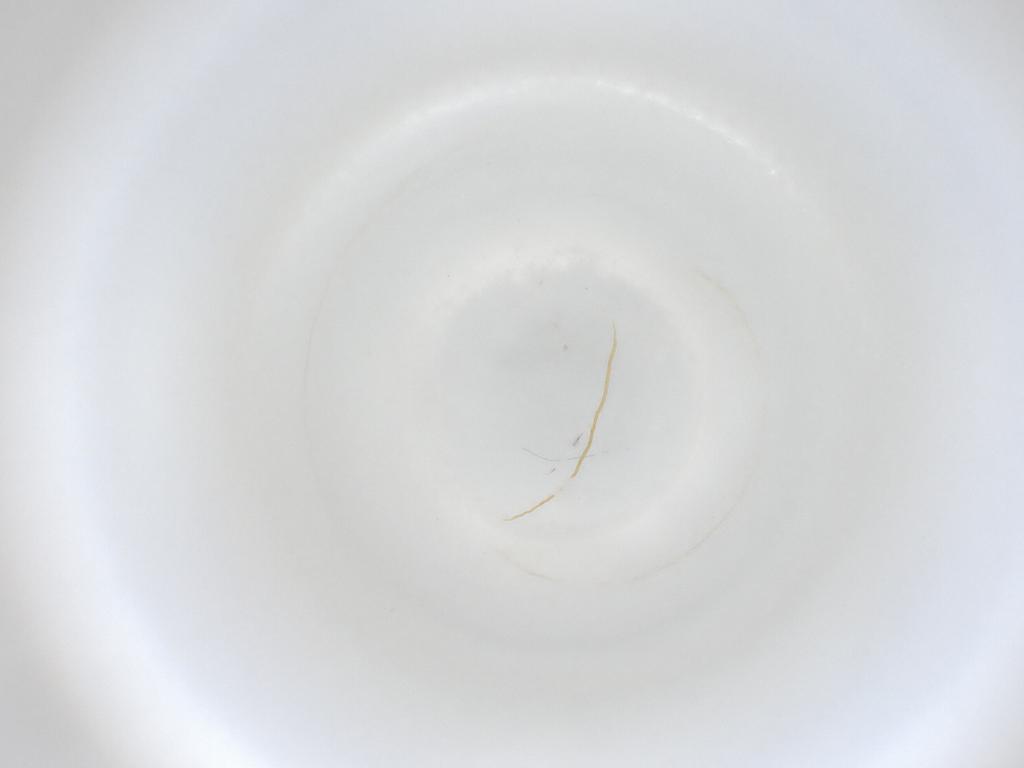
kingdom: Animalia
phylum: Arthropoda
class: Insecta
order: Diptera
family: Cecidomyiidae
